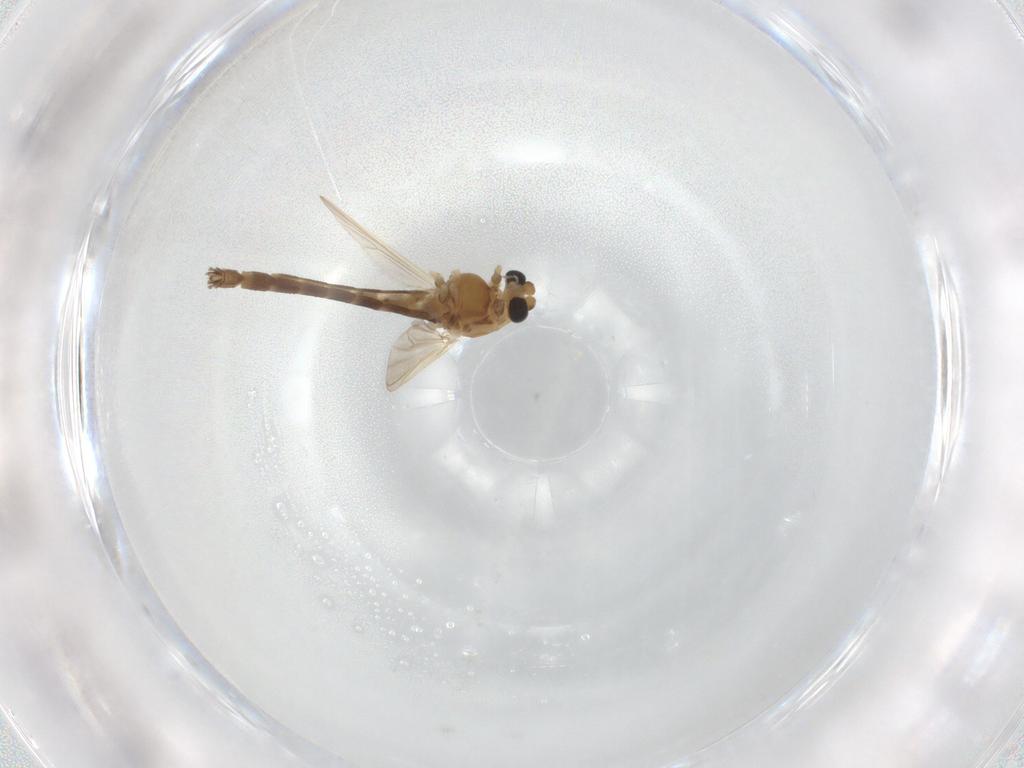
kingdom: Animalia
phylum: Arthropoda
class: Insecta
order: Diptera
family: Chironomidae
